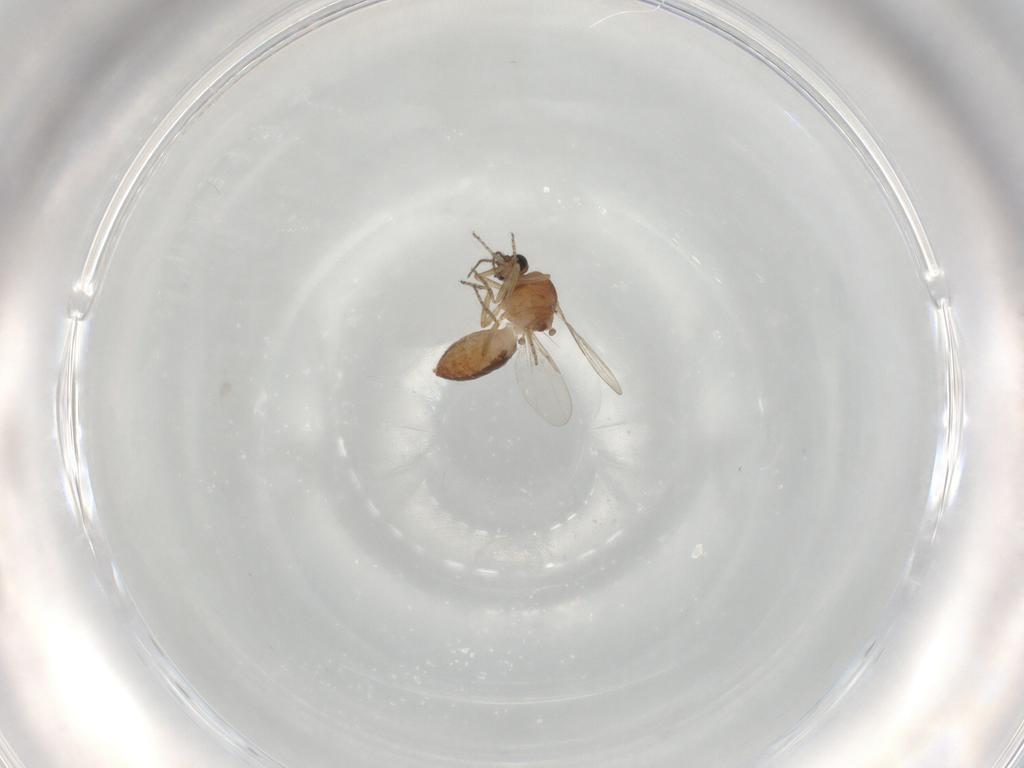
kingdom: Animalia
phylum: Arthropoda
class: Insecta
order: Diptera
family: Ceratopogonidae
